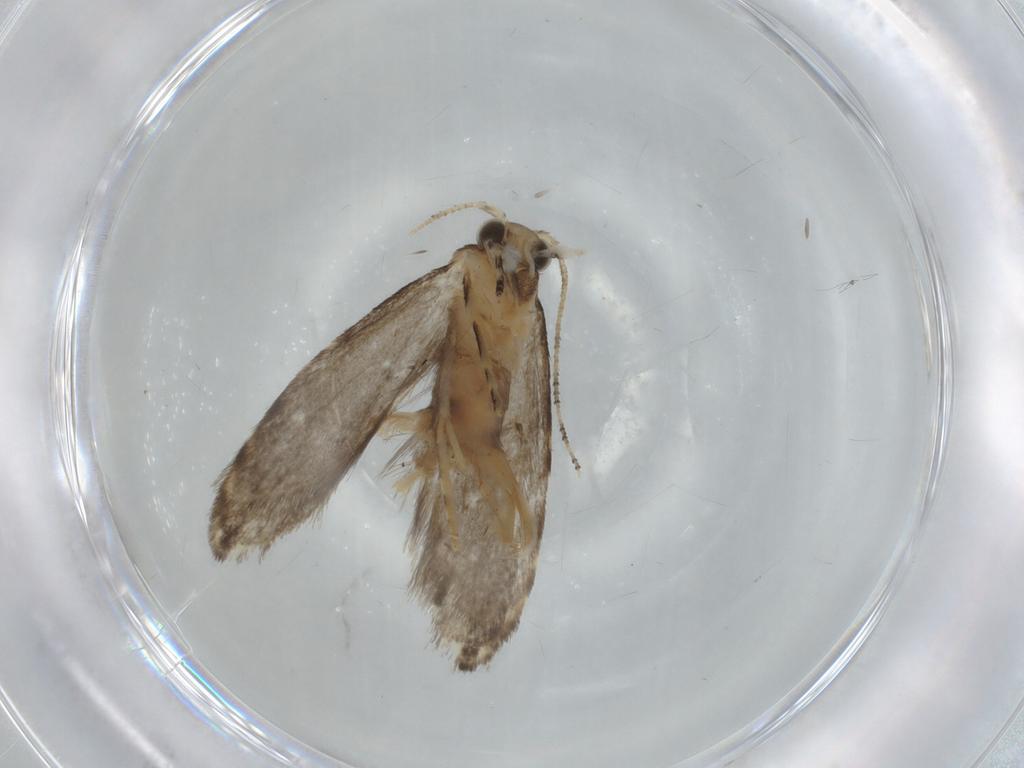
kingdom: Animalia
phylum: Arthropoda
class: Insecta
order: Lepidoptera
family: Tineidae
